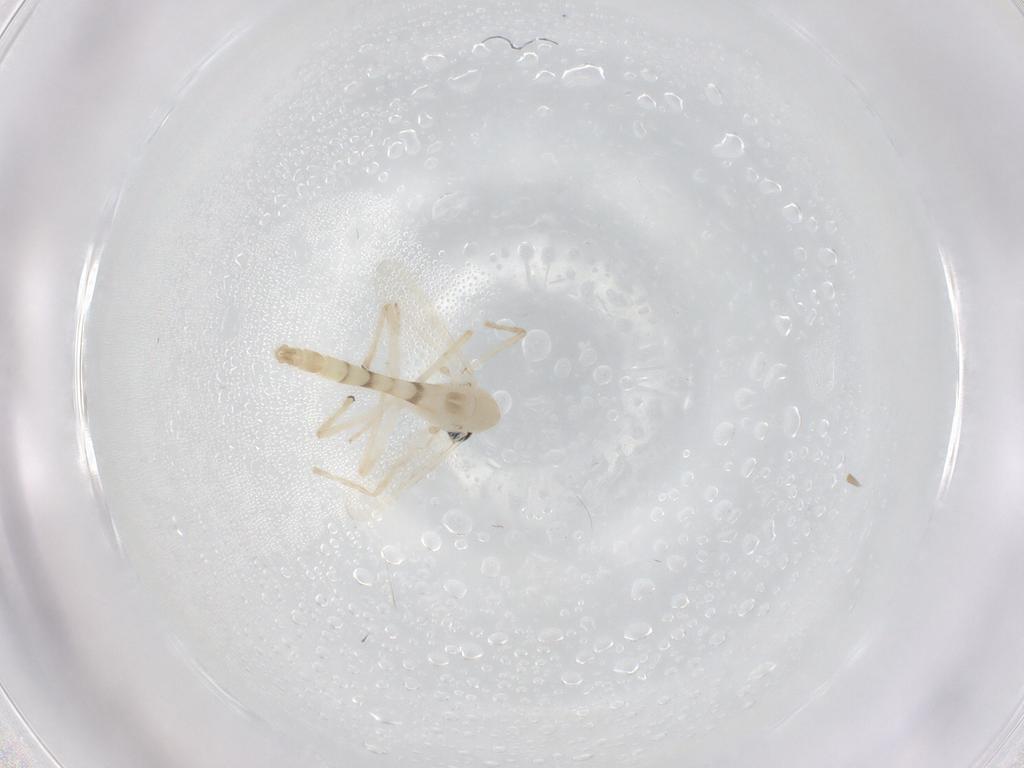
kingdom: Animalia
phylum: Arthropoda
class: Insecta
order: Diptera
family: Chironomidae
